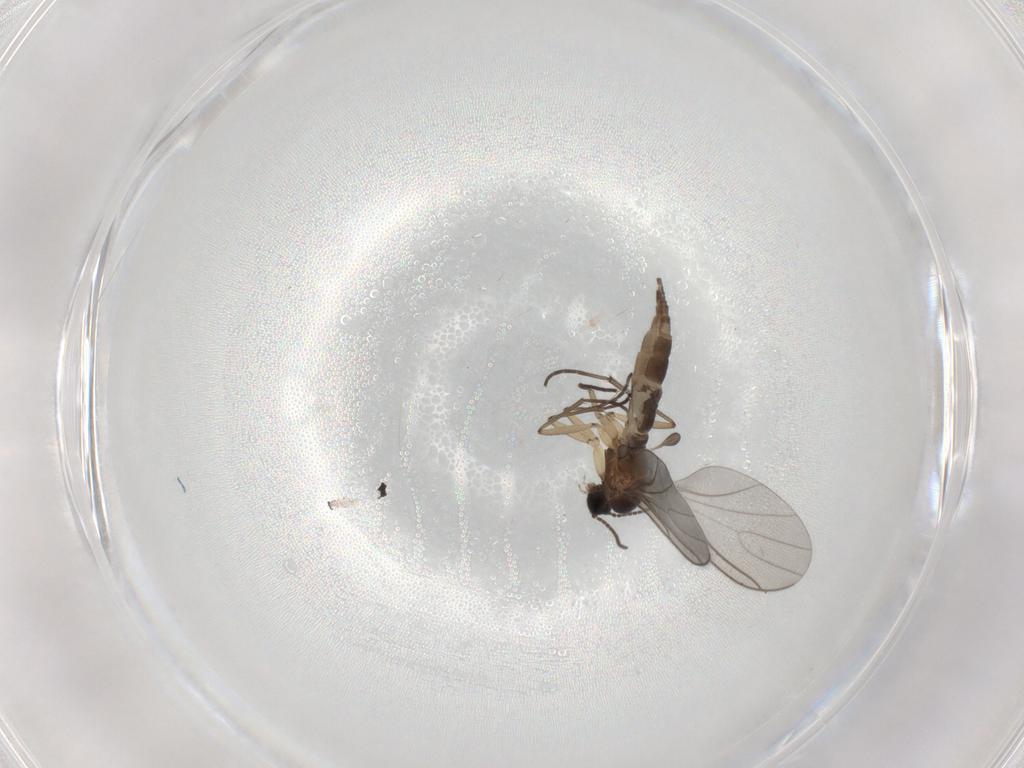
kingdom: Animalia
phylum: Arthropoda
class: Insecta
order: Diptera
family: Sciaridae
